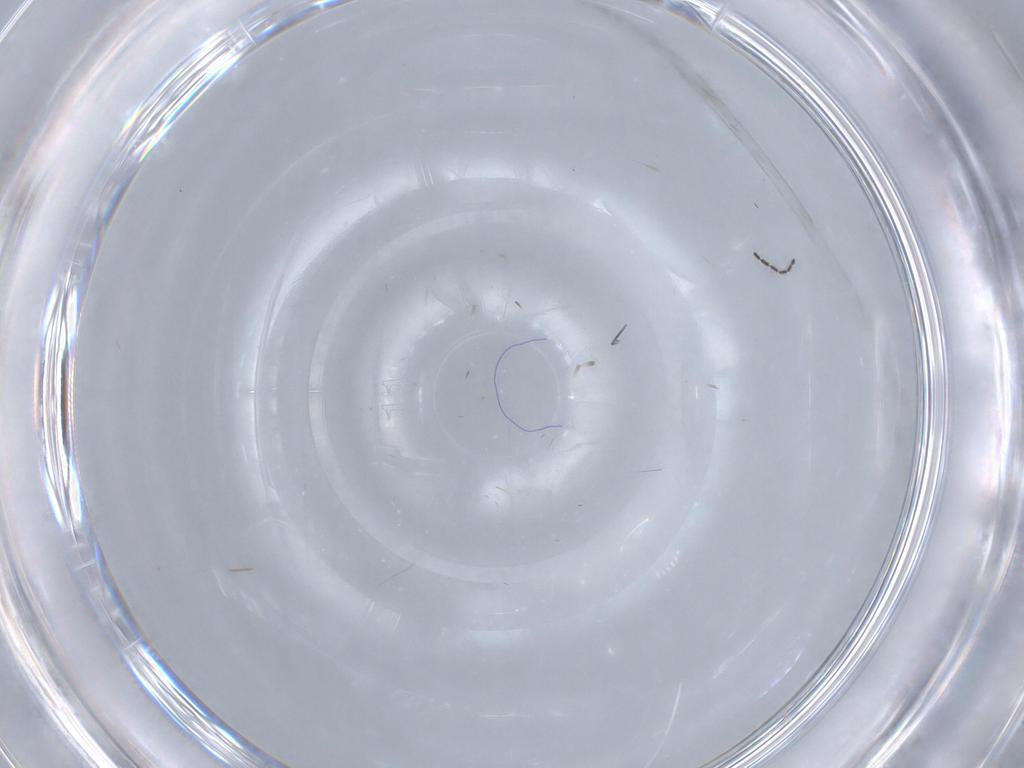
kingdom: Animalia
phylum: Arthropoda
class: Insecta
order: Diptera
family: Sciaridae
